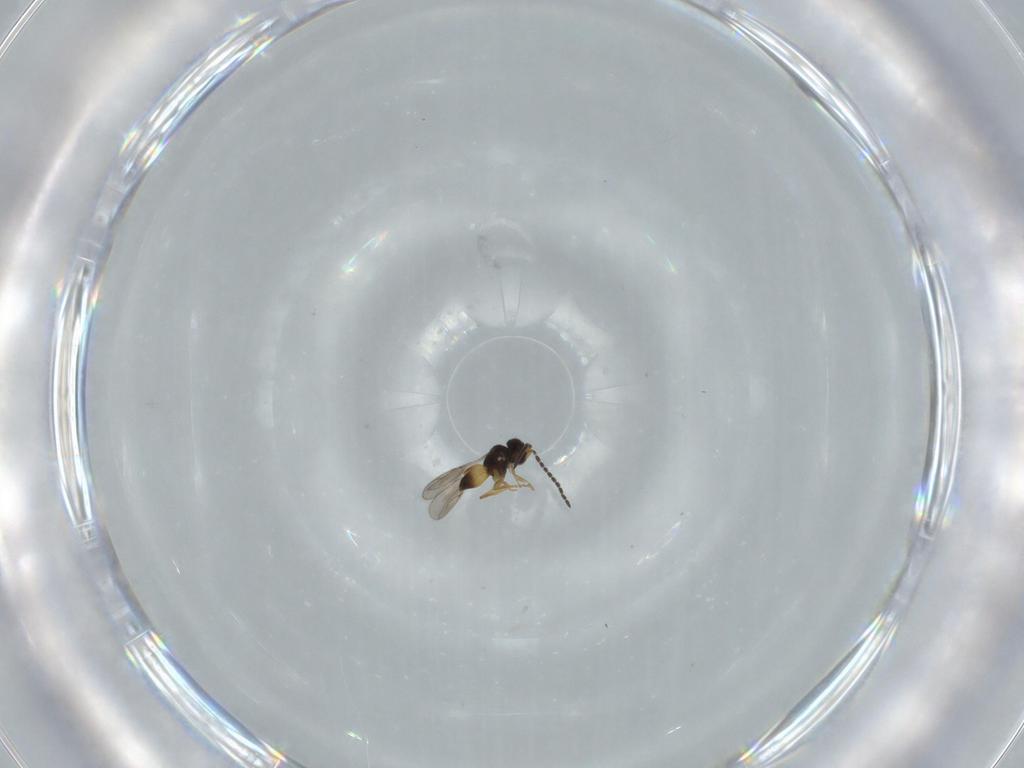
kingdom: Animalia
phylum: Arthropoda
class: Insecta
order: Hymenoptera
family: Ceraphronidae
